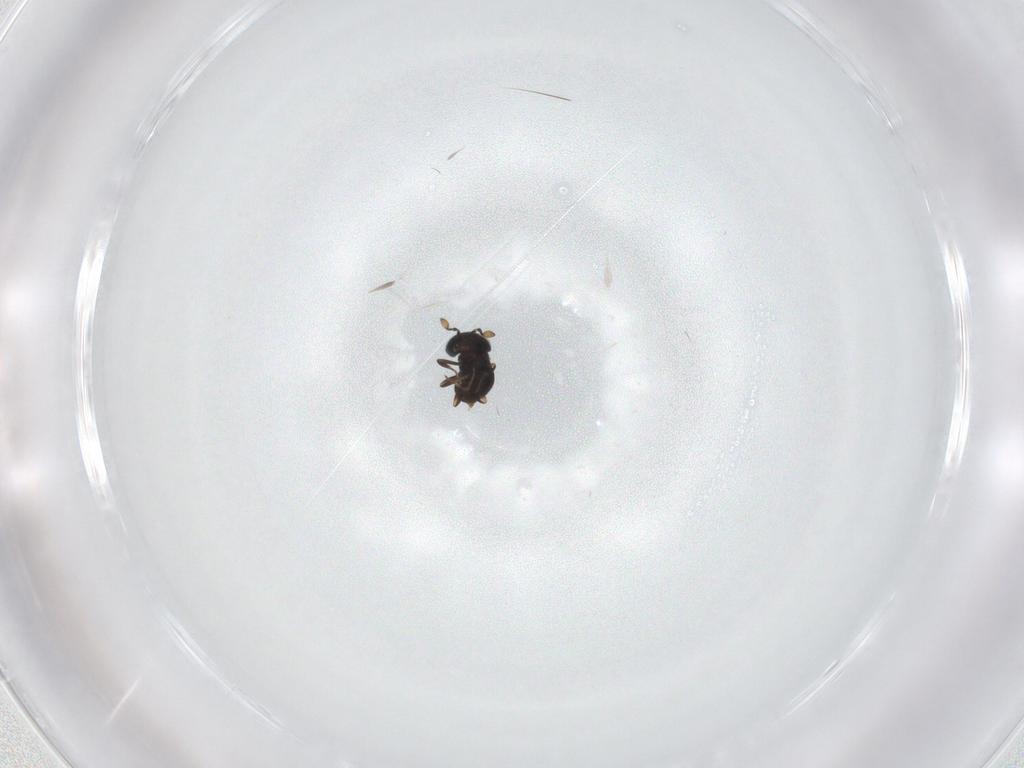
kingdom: Animalia
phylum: Arthropoda
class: Insecta
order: Hymenoptera
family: Scelionidae
